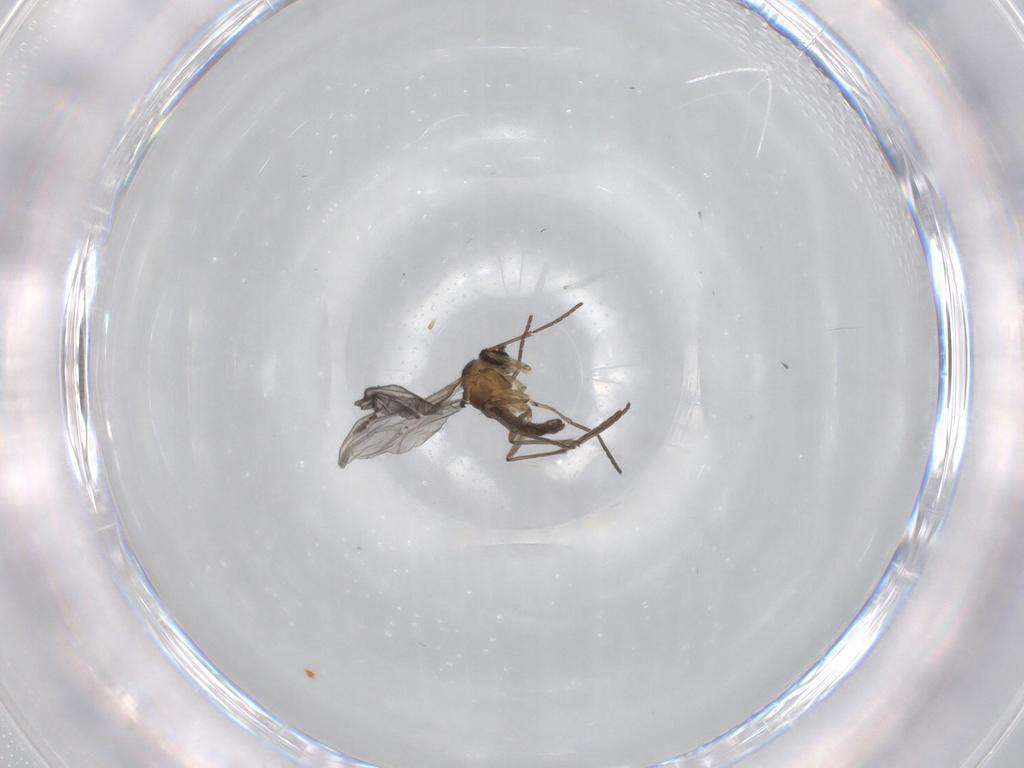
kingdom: Animalia
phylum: Arthropoda
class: Insecta
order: Diptera
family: Sciaridae
